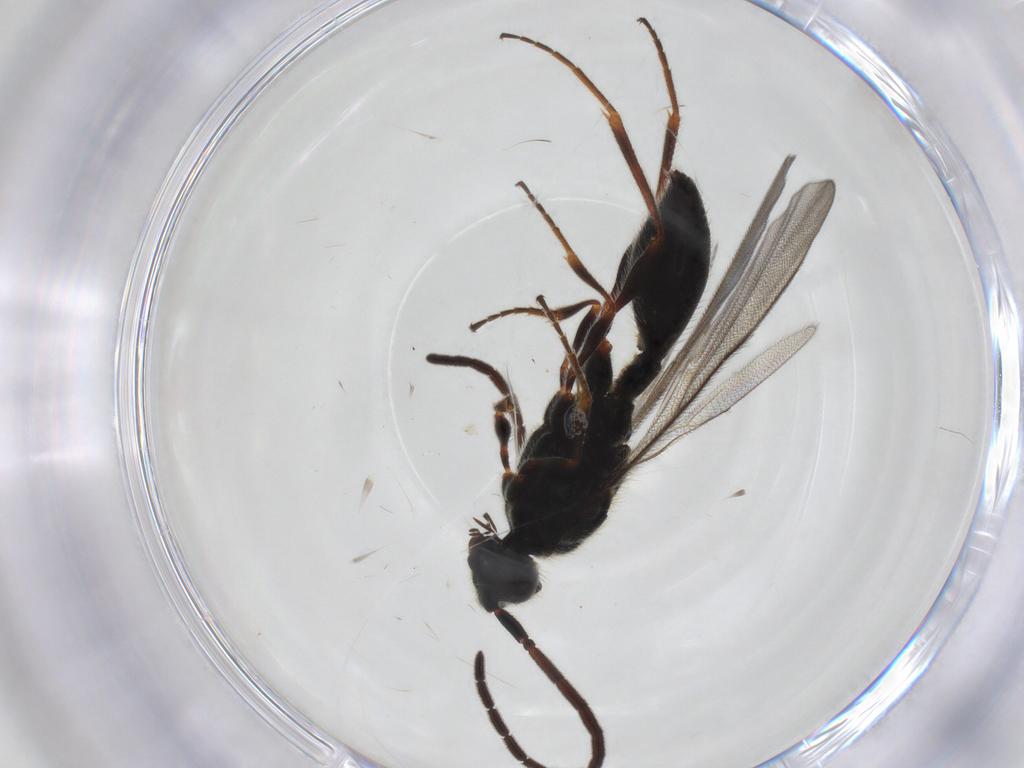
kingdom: Animalia
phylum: Arthropoda
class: Insecta
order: Hymenoptera
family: Diapriidae
